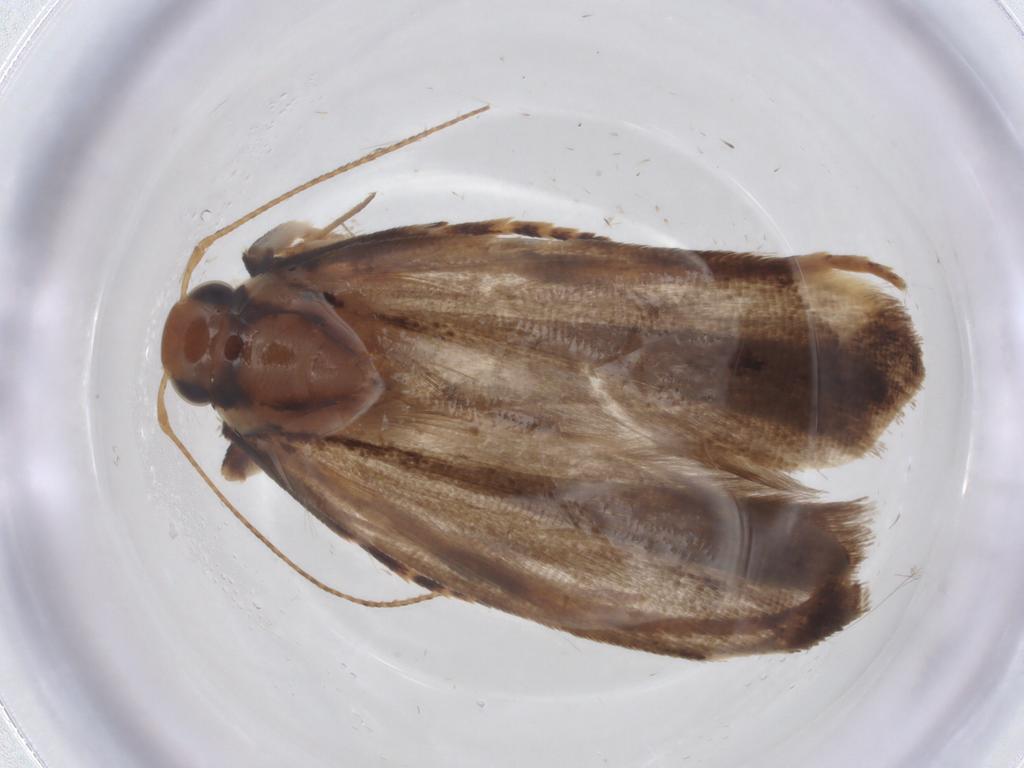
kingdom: Animalia
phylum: Arthropoda
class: Insecta
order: Lepidoptera
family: Gelechiidae
